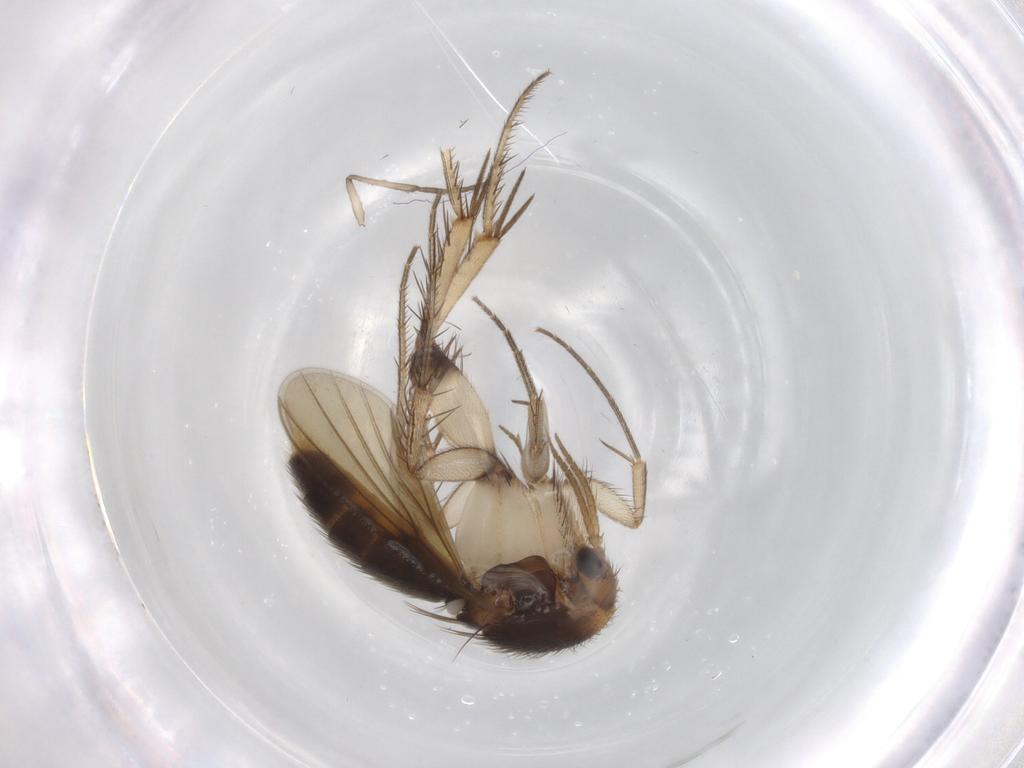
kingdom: Animalia
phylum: Arthropoda
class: Insecta
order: Diptera
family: Mycetophilidae
